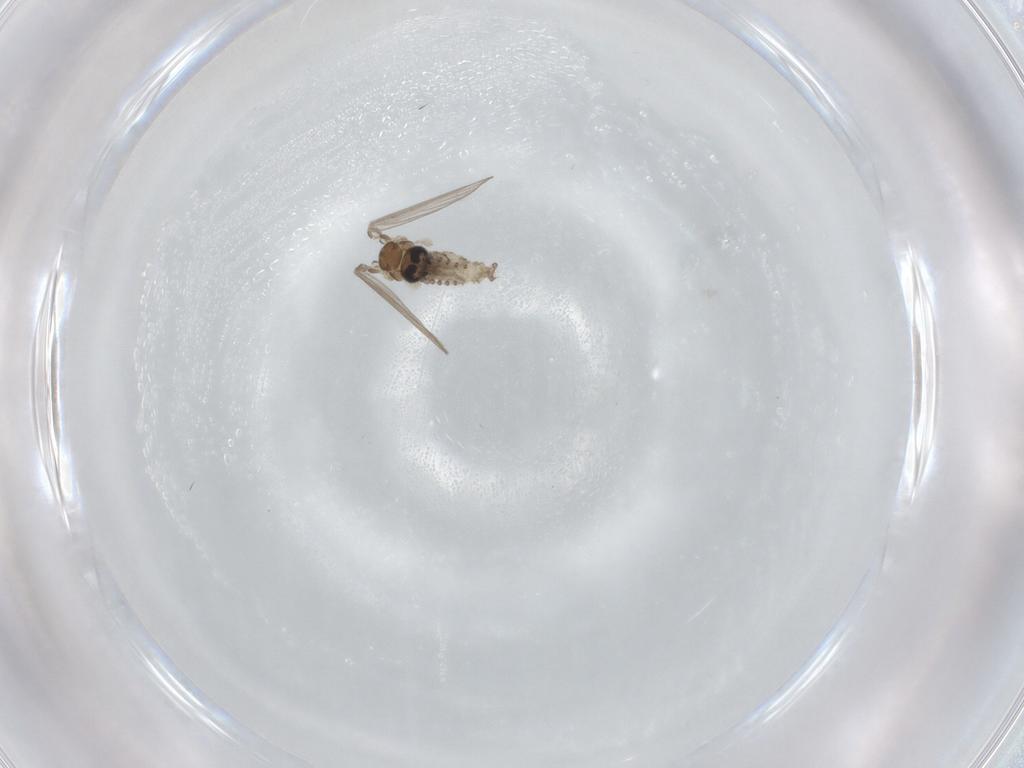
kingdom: Animalia
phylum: Arthropoda
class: Insecta
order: Diptera
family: Psychodidae
